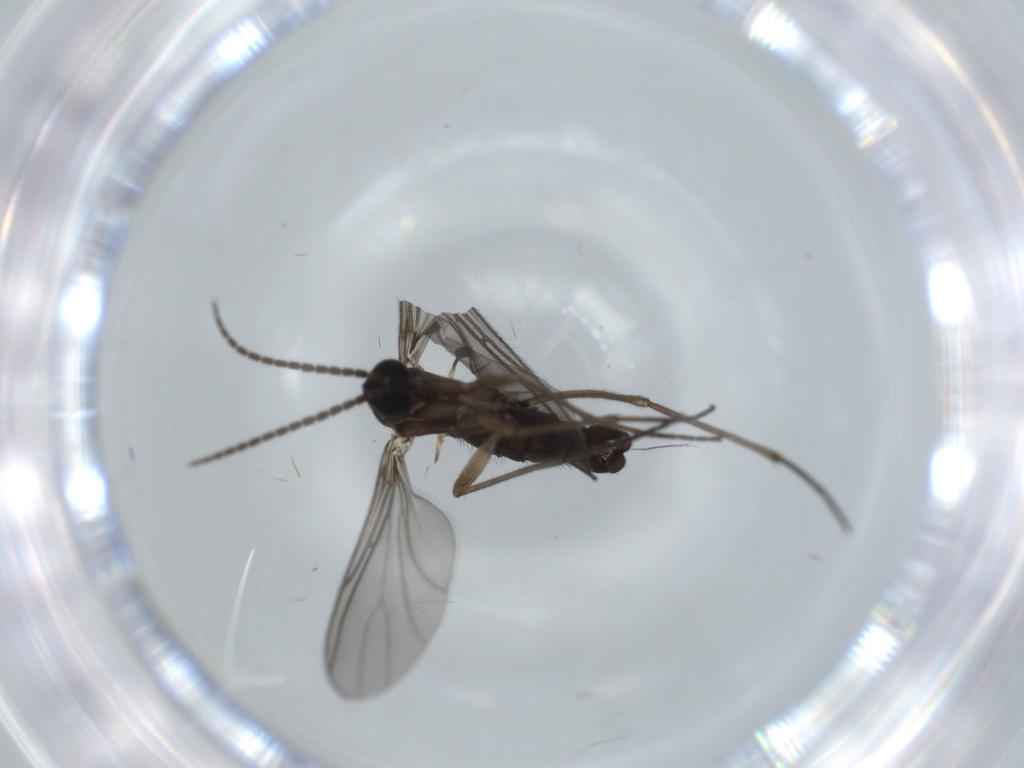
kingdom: Animalia
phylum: Arthropoda
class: Insecta
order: Diptera
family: Sciaridae
